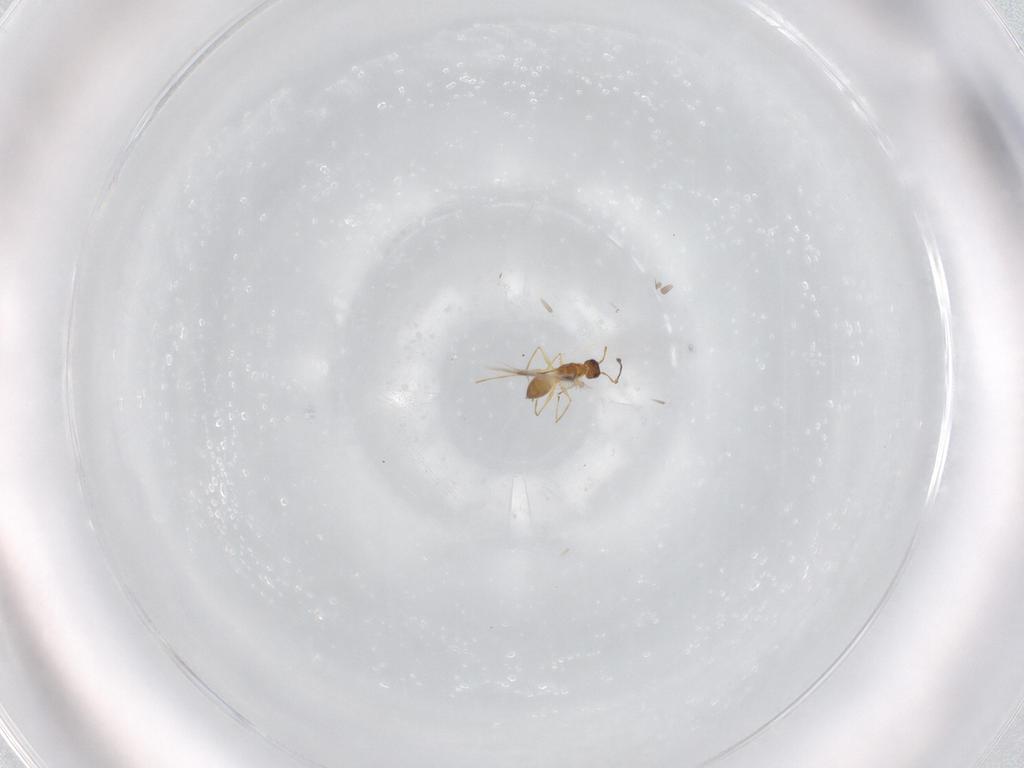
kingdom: Animalia
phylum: Arthropoda
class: Insecta
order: Hymenoptera
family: Mymaridae
